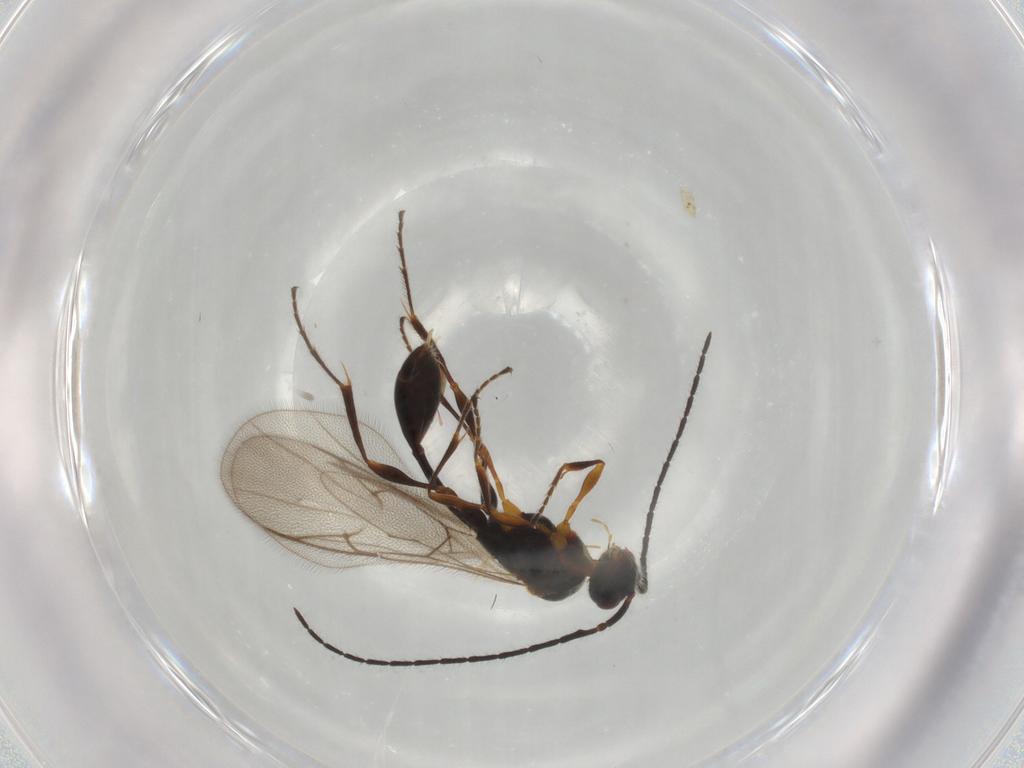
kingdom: Animalia
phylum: Arthropoda
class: Insecta
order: Hymenoptera
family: Diapriidae
